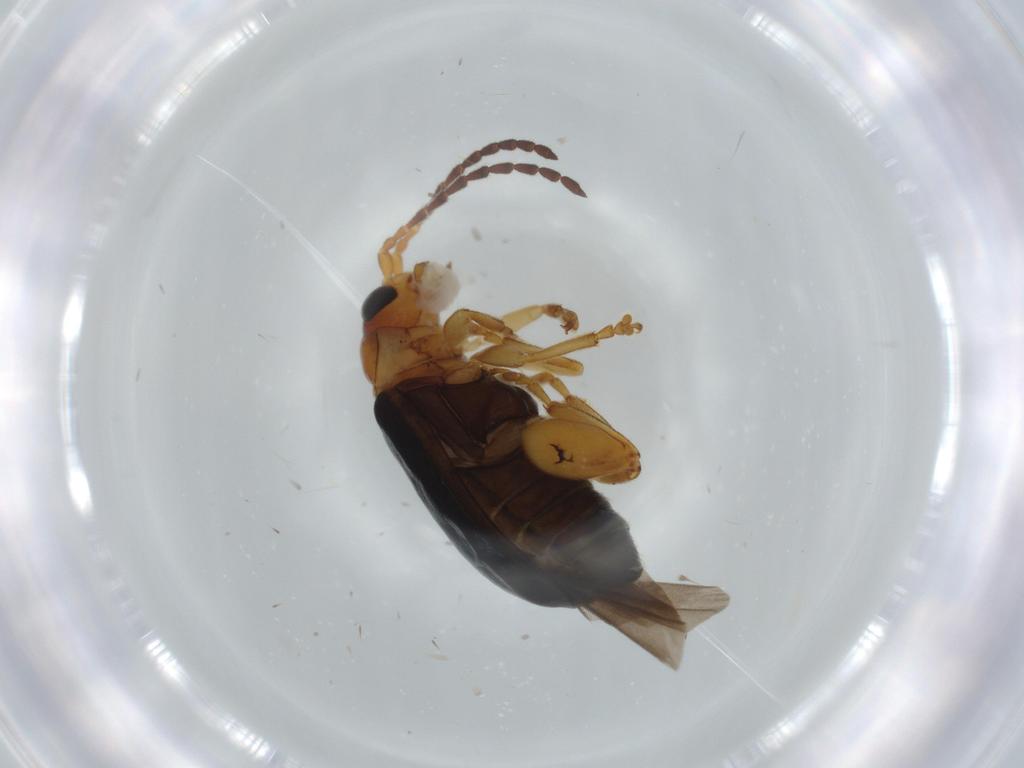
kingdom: Animalia
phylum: Arthropoda
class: Insecta
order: Coleoptera
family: Chrysomelidae
